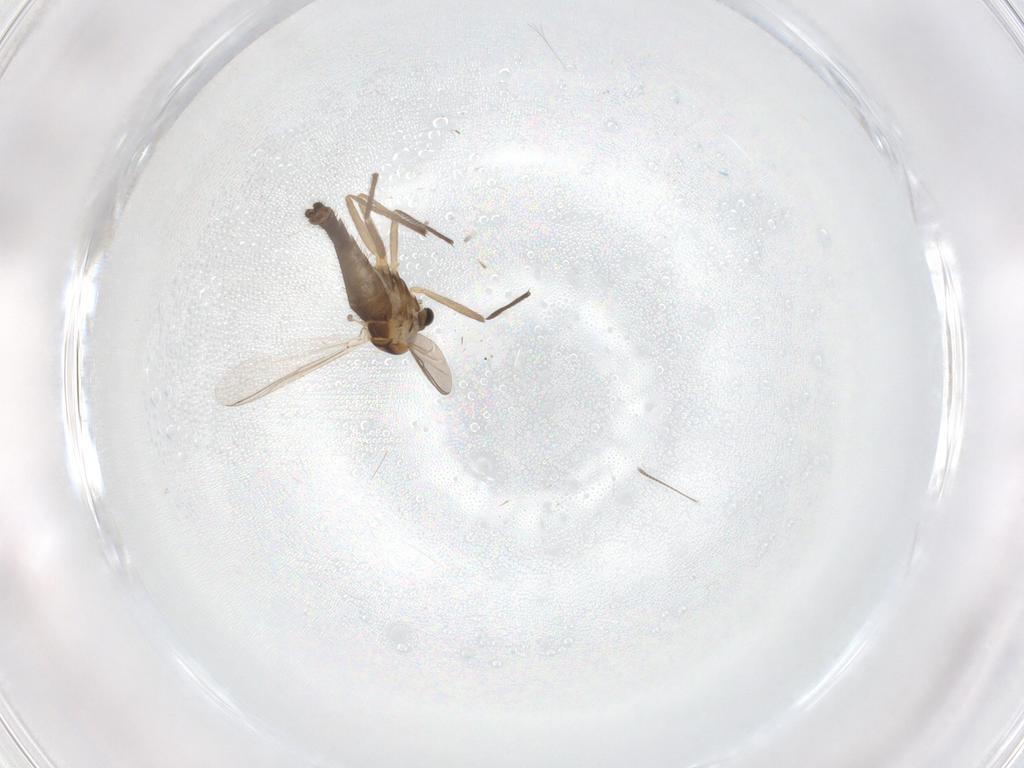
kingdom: Animalia
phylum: Arthropoda
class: Insecta
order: Diptera
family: Chironomidae
